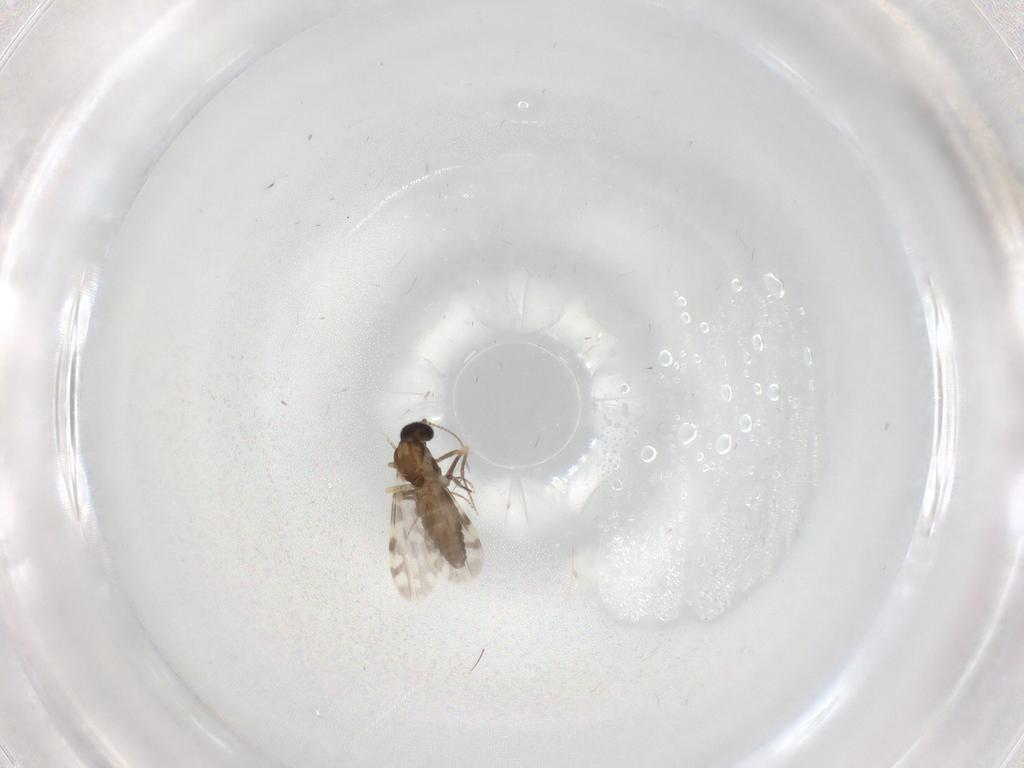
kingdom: Animalia
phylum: Arthropoda
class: Insecta
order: Diptera
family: Ceratopogonidae
